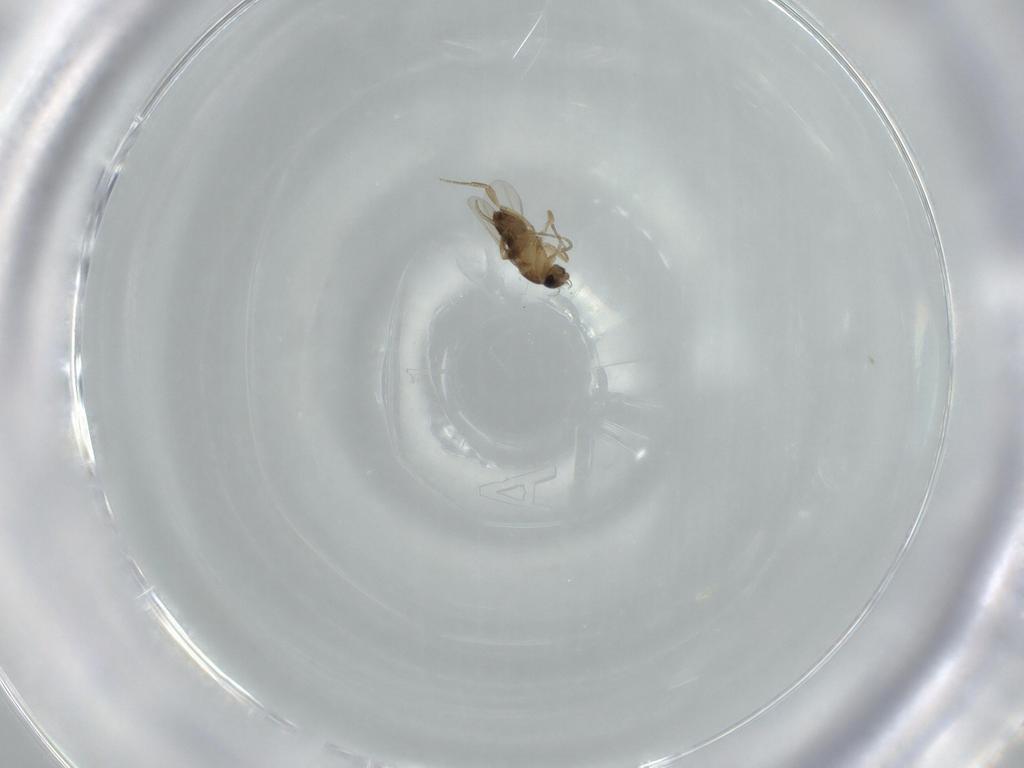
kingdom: Animalia
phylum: Arthropoda
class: Insecta
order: Diptera
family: Phoridae
